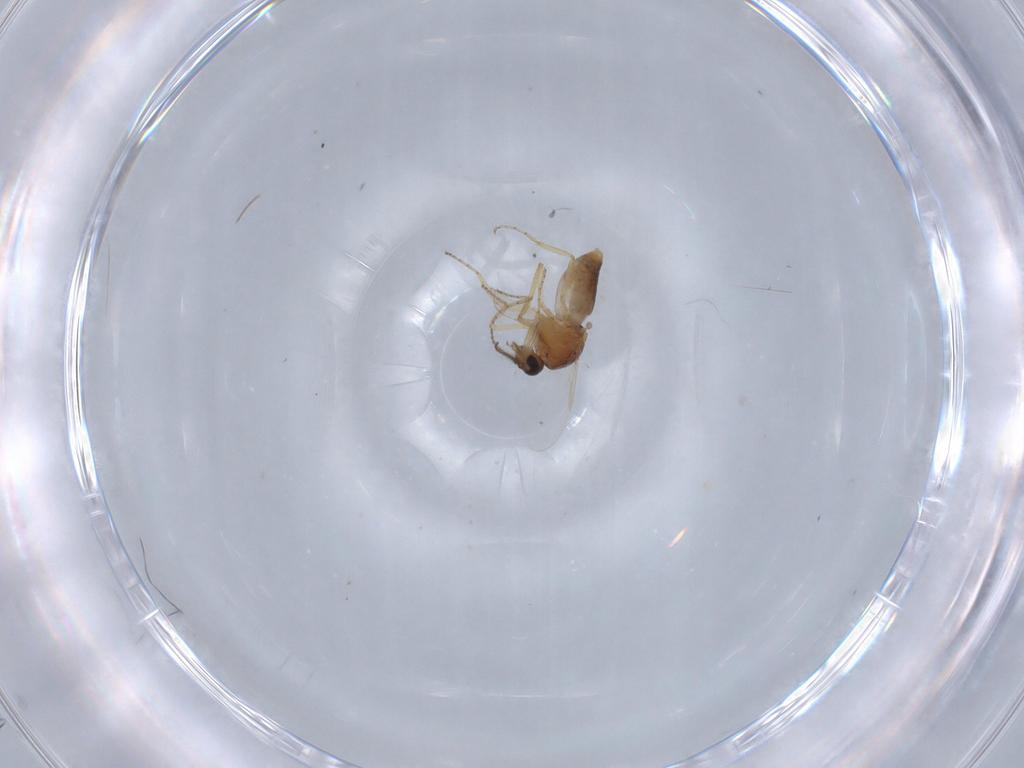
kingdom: Animalia
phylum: Arthropoda
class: Insecta
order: Diptera
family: Ceratopogonidae
